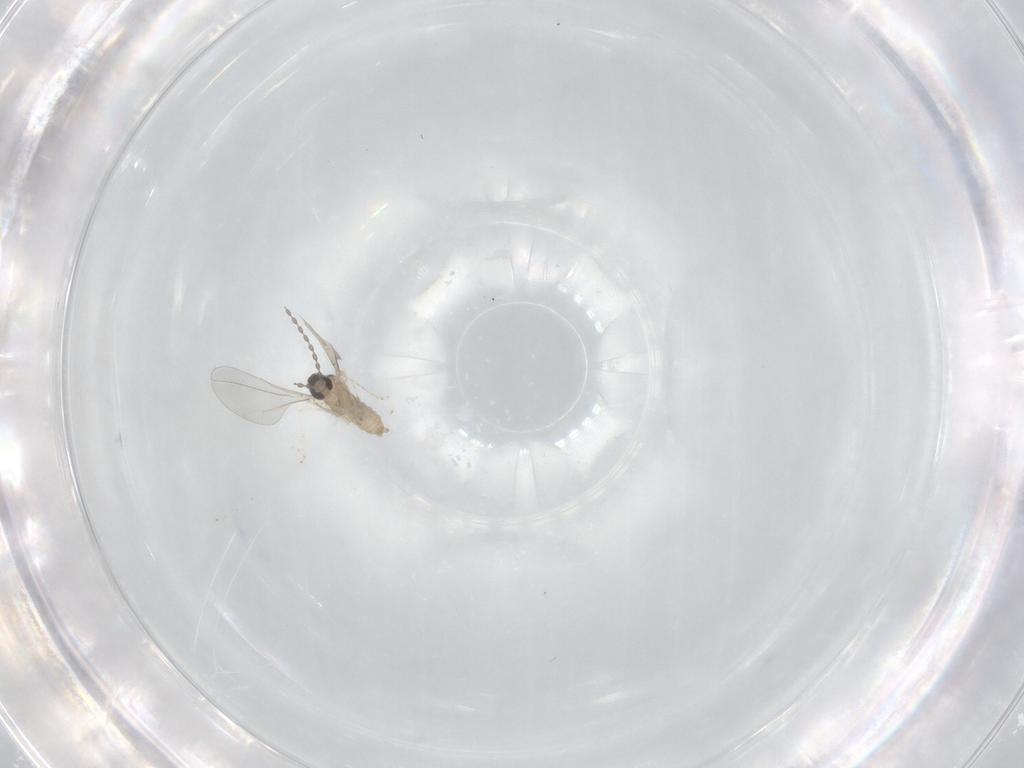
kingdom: Animalia
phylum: Arthropoda
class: Insecta
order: Diptera
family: Cecidomyiidae
